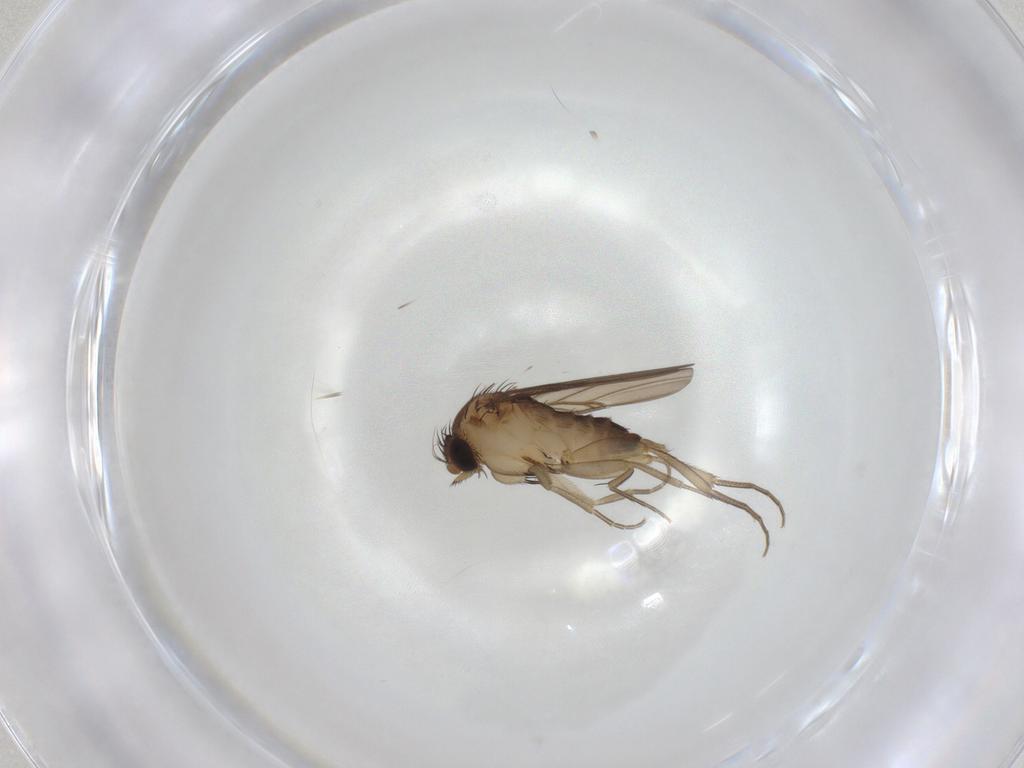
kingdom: Animalia
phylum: Arthropoda
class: Insecta
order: Diptera
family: Phoridae
